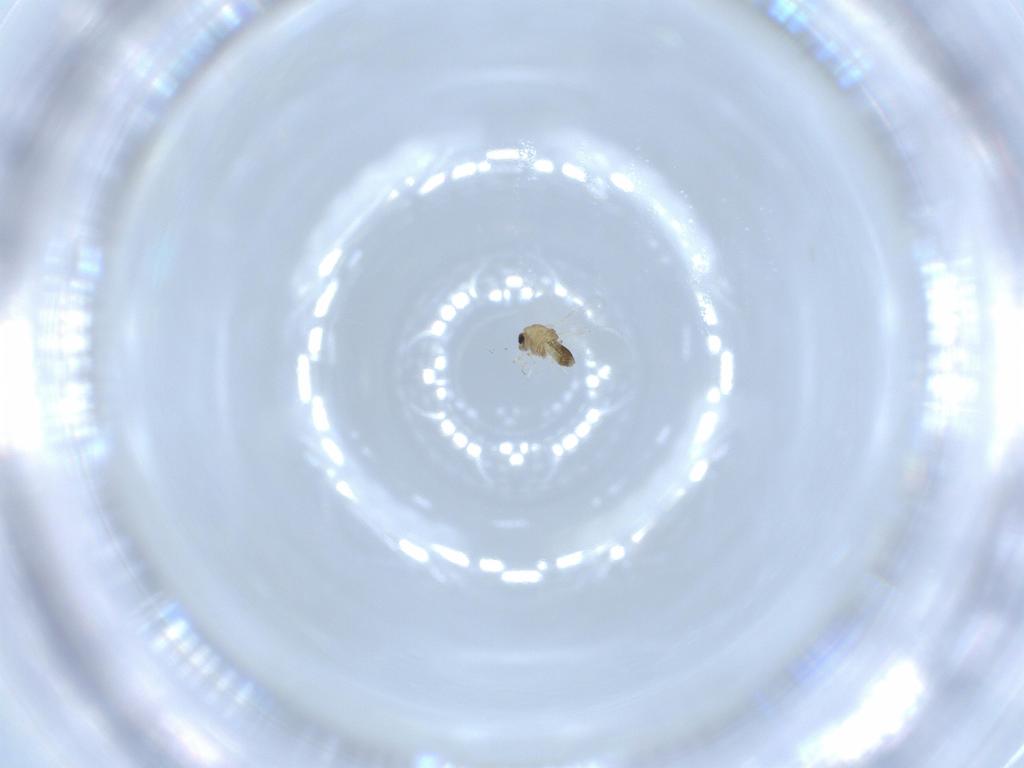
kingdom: Animalia
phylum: Arthropoda
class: Insecta
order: Diptera
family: Chironomidae
